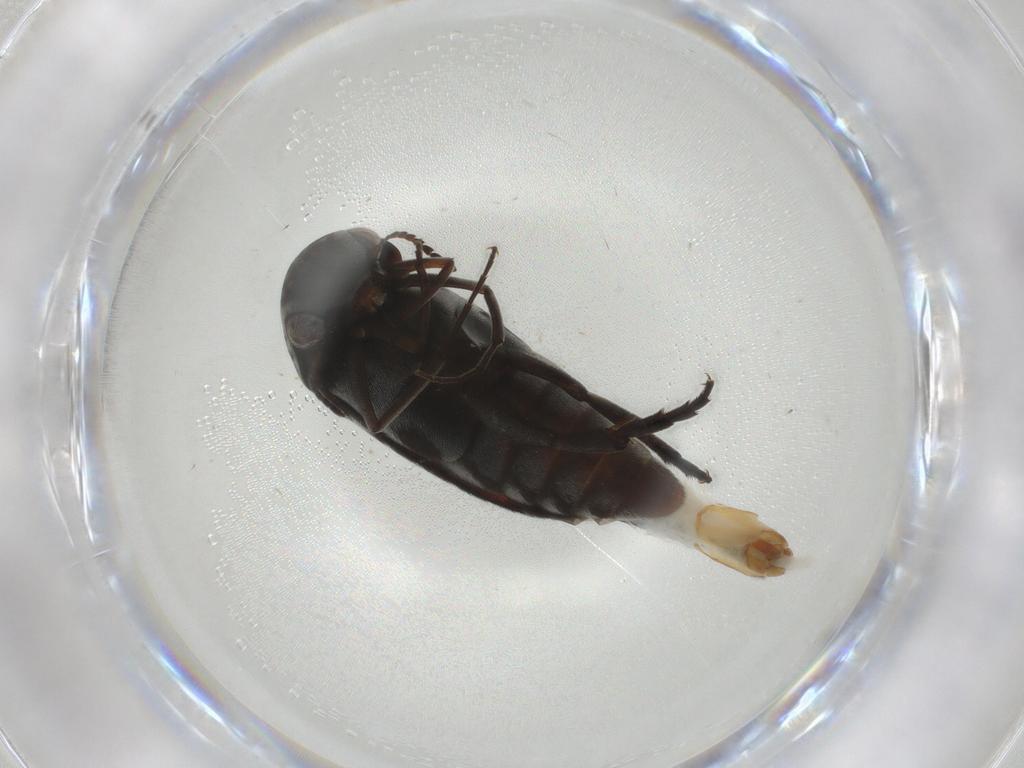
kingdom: Animalia
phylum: Arthropoda
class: Insecta
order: Coleoptera
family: Mordellidae
